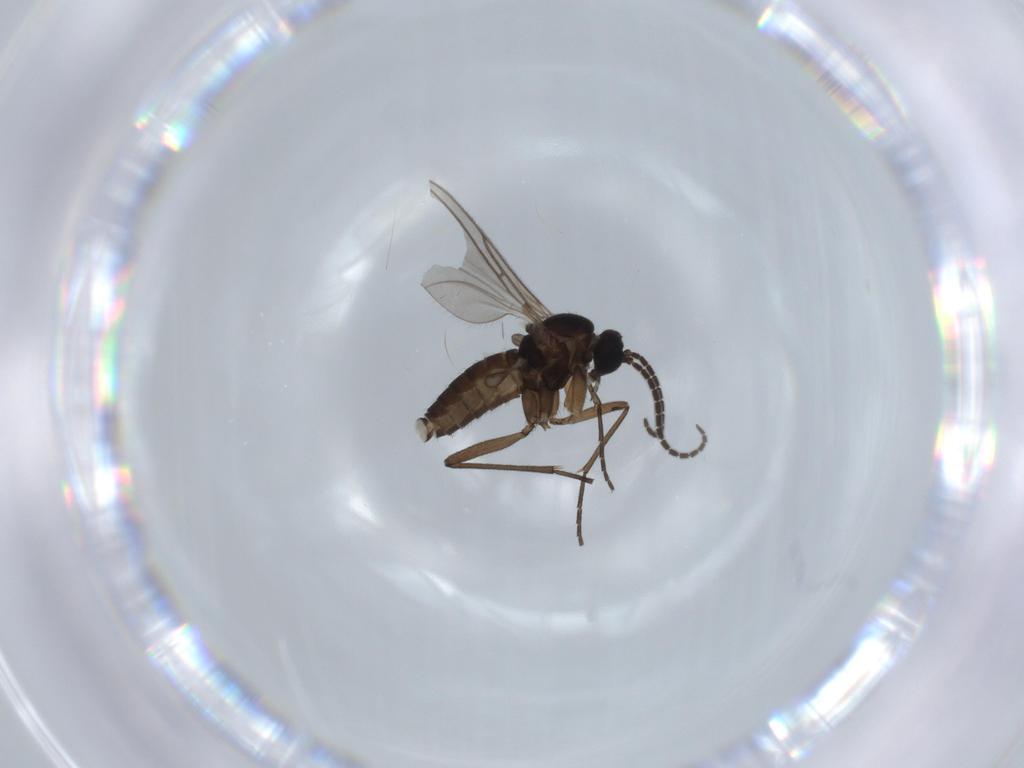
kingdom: Animalia
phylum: Arthropoda
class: Insecta
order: Diptera
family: Sciaridae
